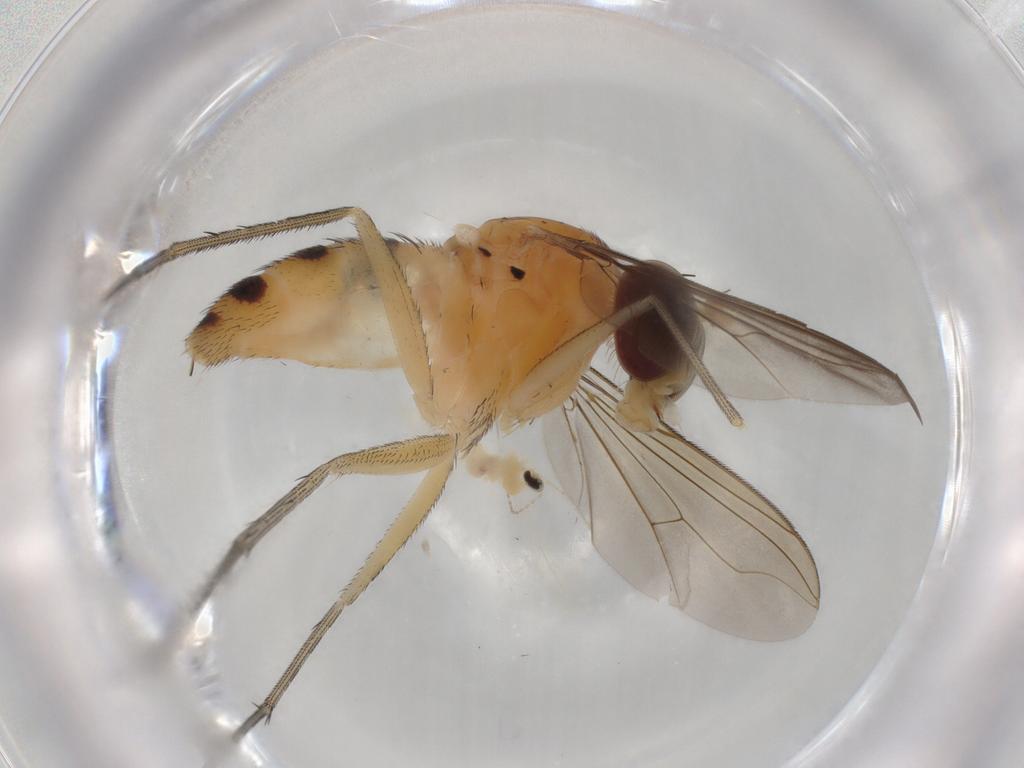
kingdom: Animalia
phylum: Arthropoda
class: Insecta
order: Diptera
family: Cecidomyiidae
